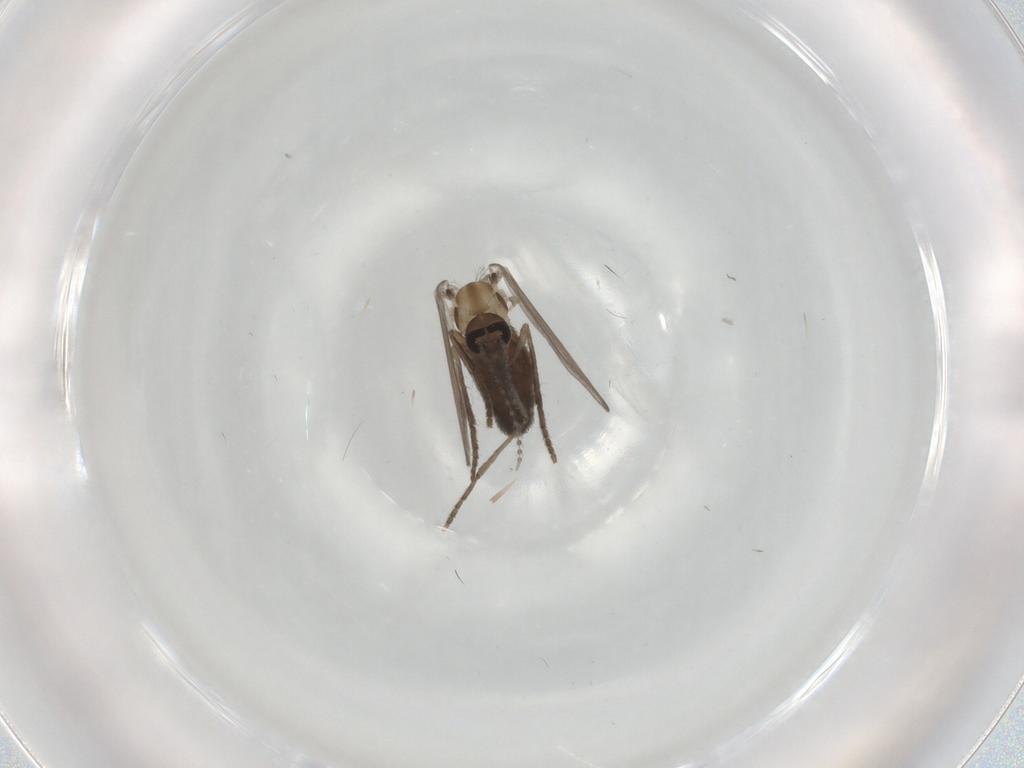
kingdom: Animalia
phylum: Arthropoda
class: Insecta
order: Diptera
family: Psychodidae
